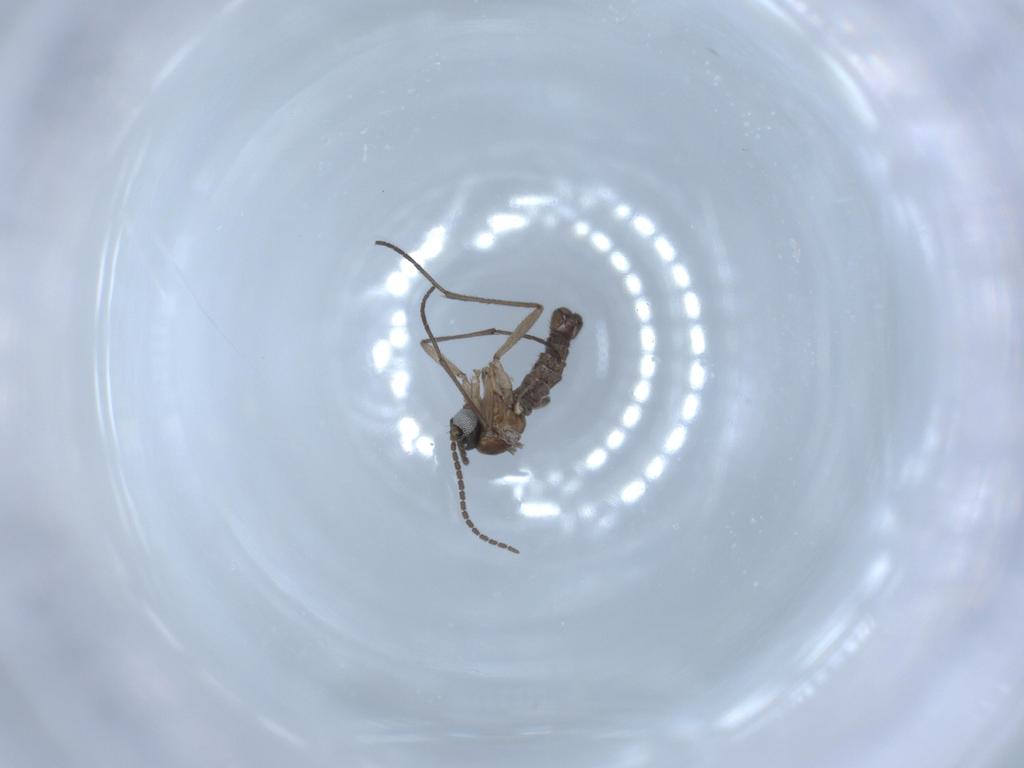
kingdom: Animalia
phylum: Arthropoda
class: Insecta
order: Diptera
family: Sciaridae
